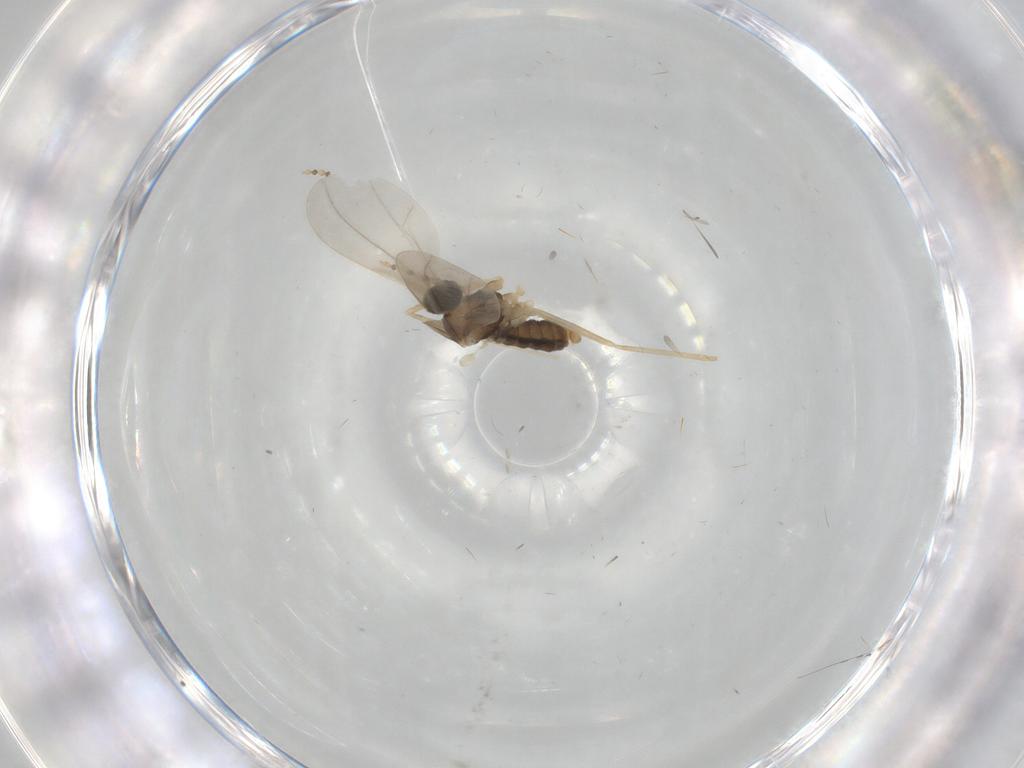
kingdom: Animalia
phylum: Arthropoda
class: Insecta
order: Diptera
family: Cecidomyiidae
